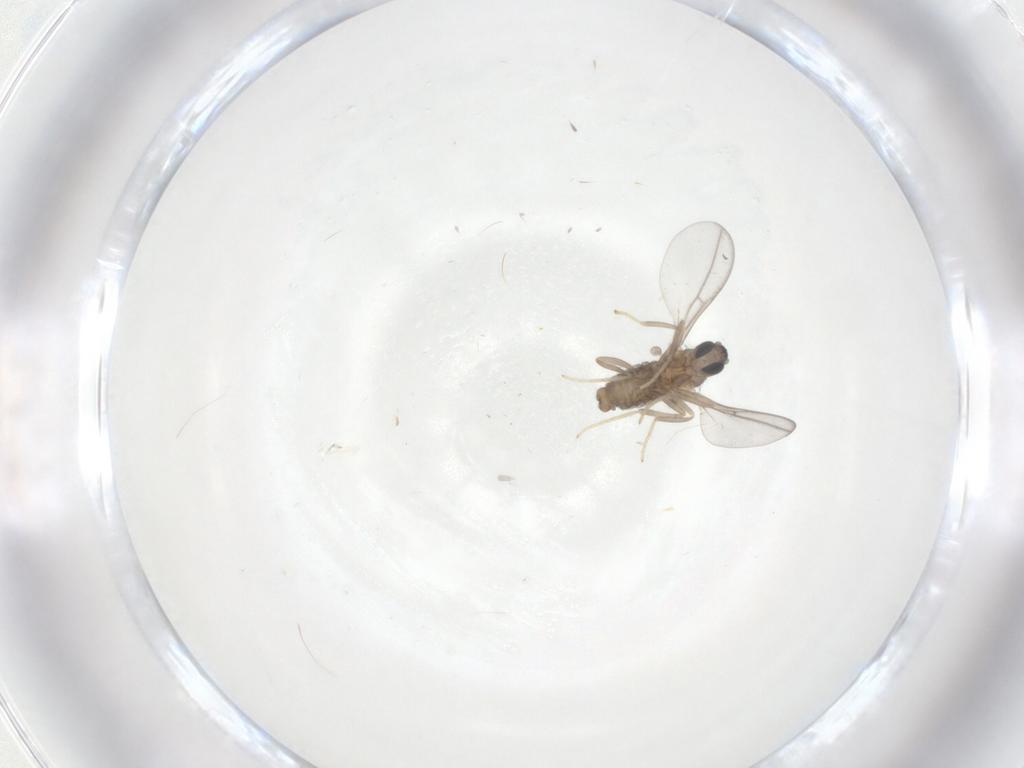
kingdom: Animalia
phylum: Arthropoda
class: Insecta
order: Diptera
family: Cecidomyiidae
